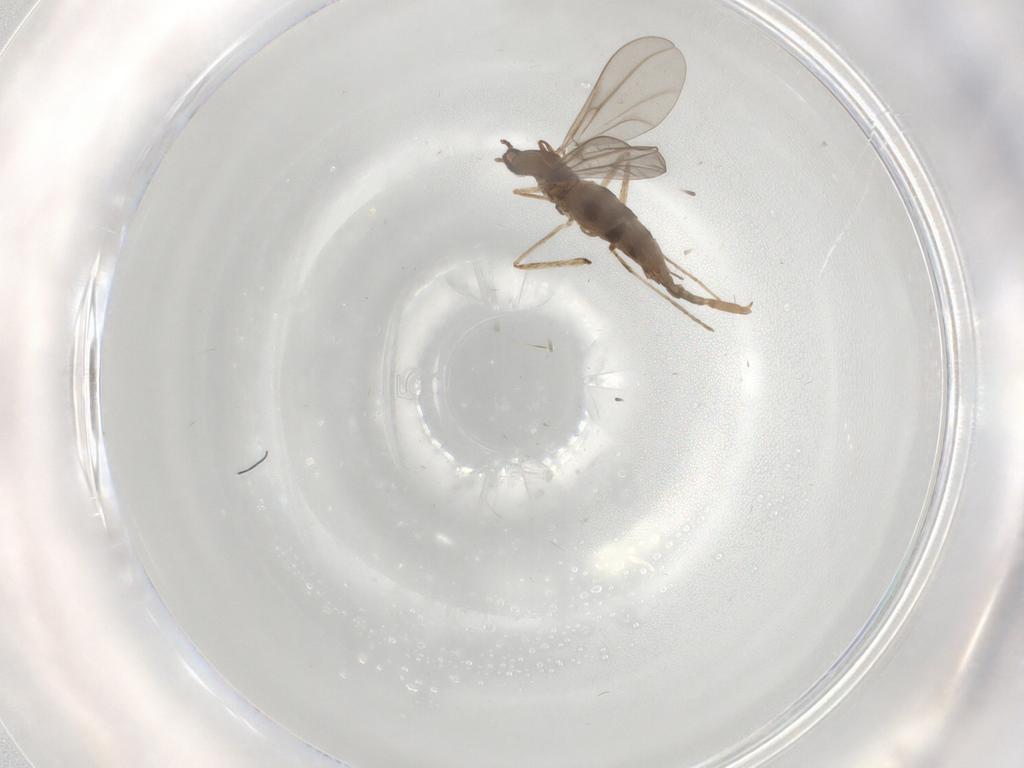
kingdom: Animalia
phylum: Arthropoda
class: Insecta
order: Diptera
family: Cecidomyiidae
